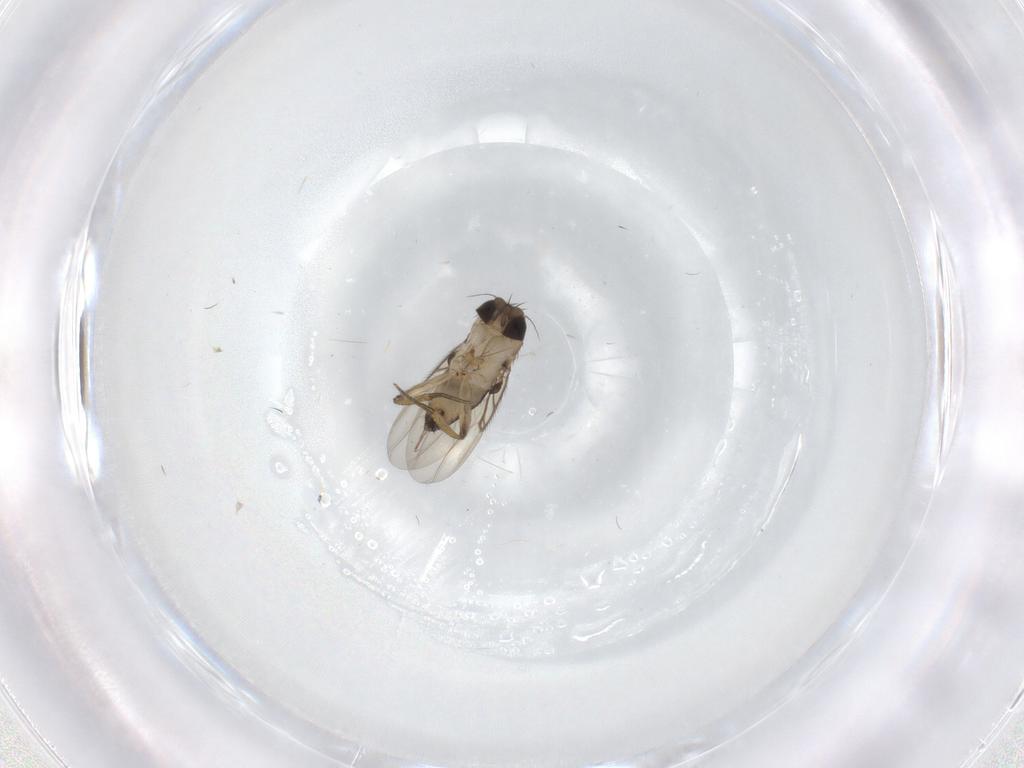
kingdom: Animalia
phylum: Arthropoda
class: Insecta
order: Diptera
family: Phoridae
